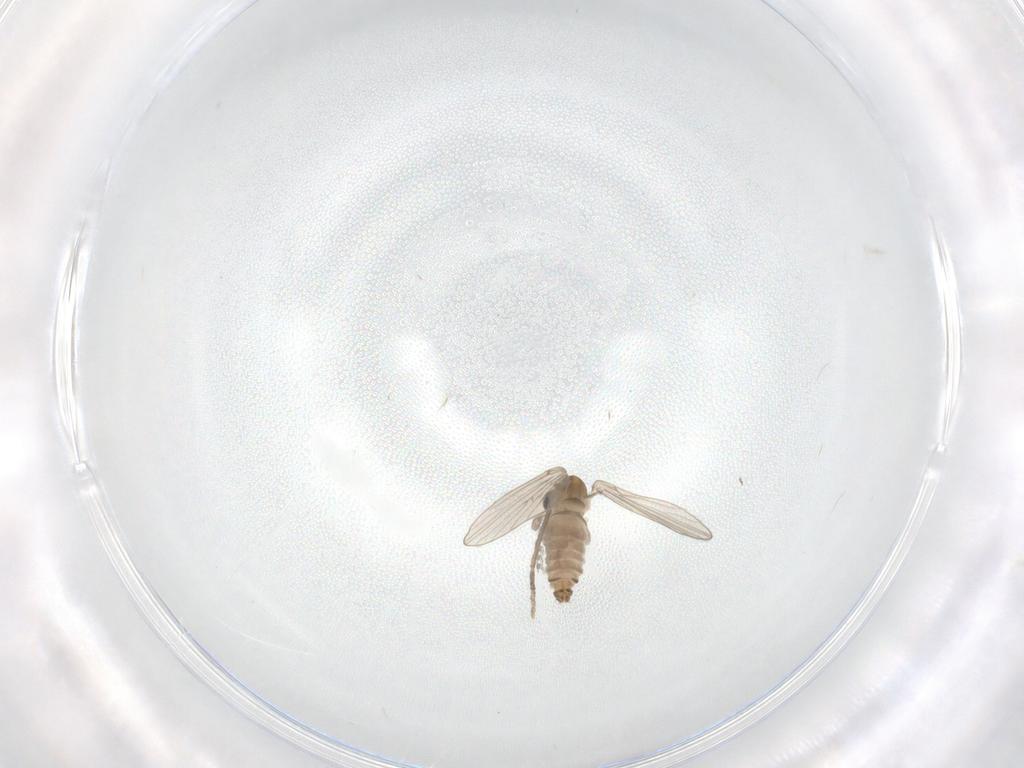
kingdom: Animalia
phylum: Arthropoda
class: Insecta
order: Diptera
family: Psychodidae
